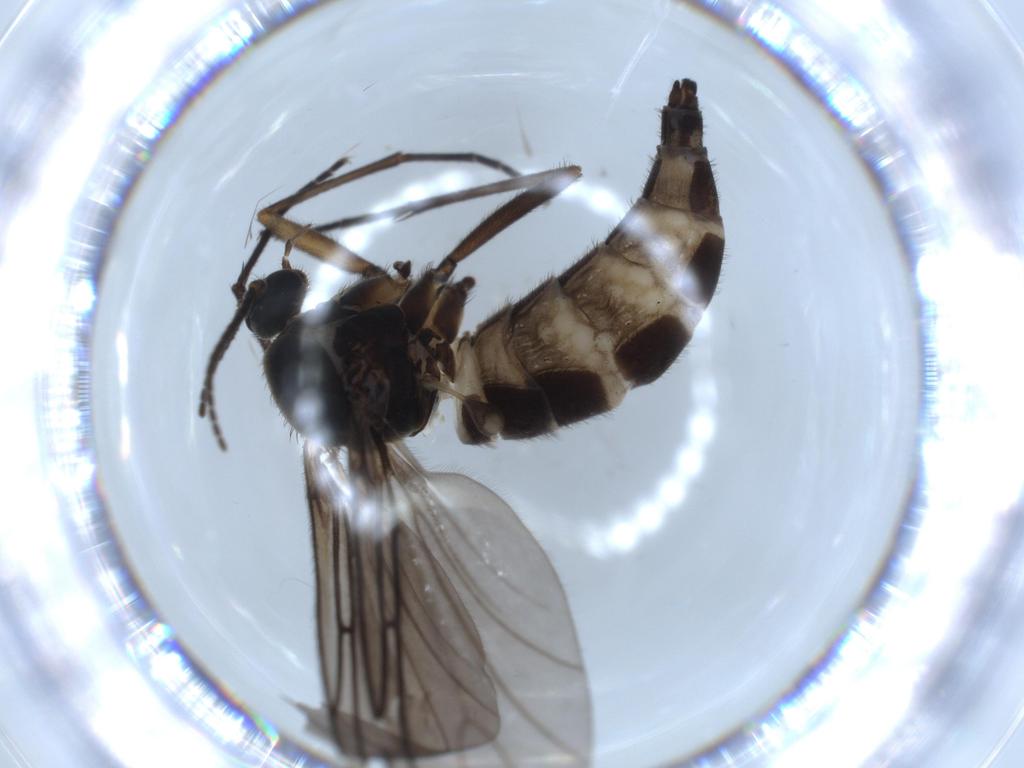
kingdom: Animalia
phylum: Arthropoda
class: Insecta
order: Diptera
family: Sciaridae
